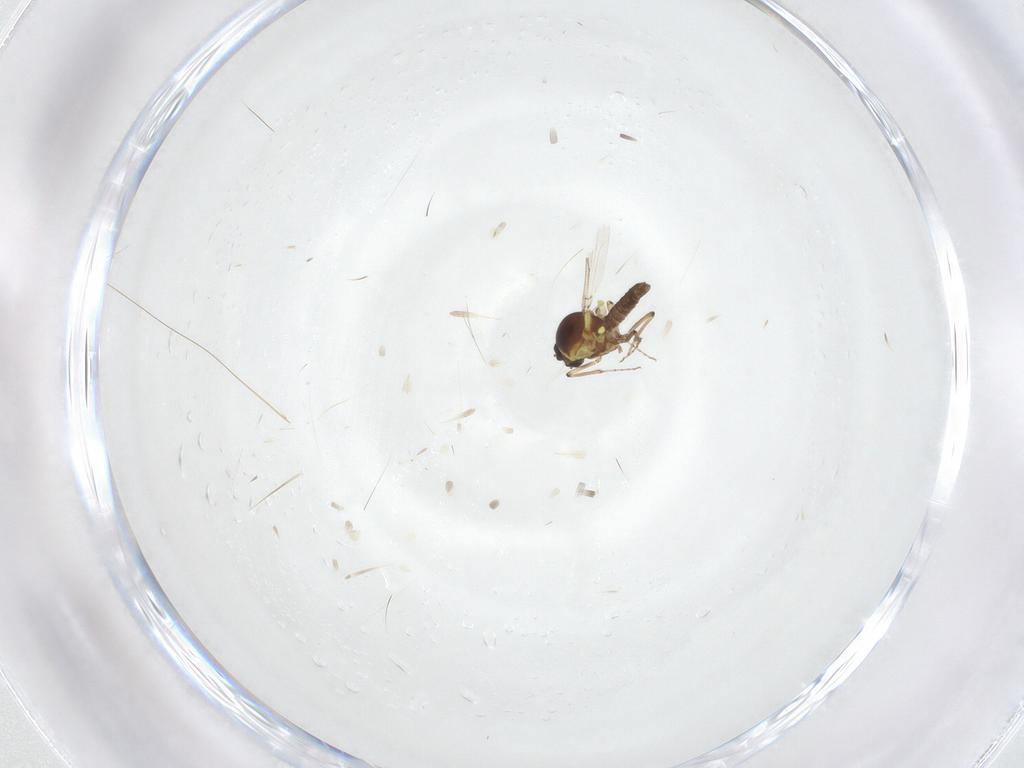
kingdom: Animalia
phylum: Arthropoda
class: Insecta
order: Diptera
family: Ceratopogonidae
